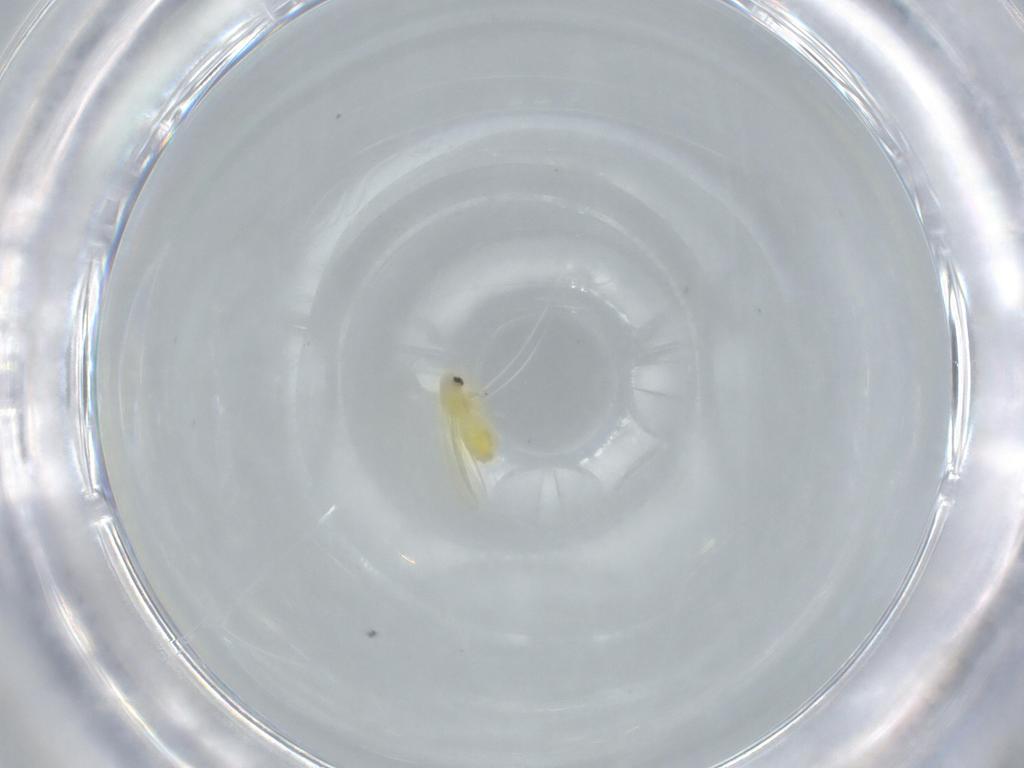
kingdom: Animalia
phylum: Arthropoda
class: Insecta
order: Hemiptera
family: Aleyrodidae
